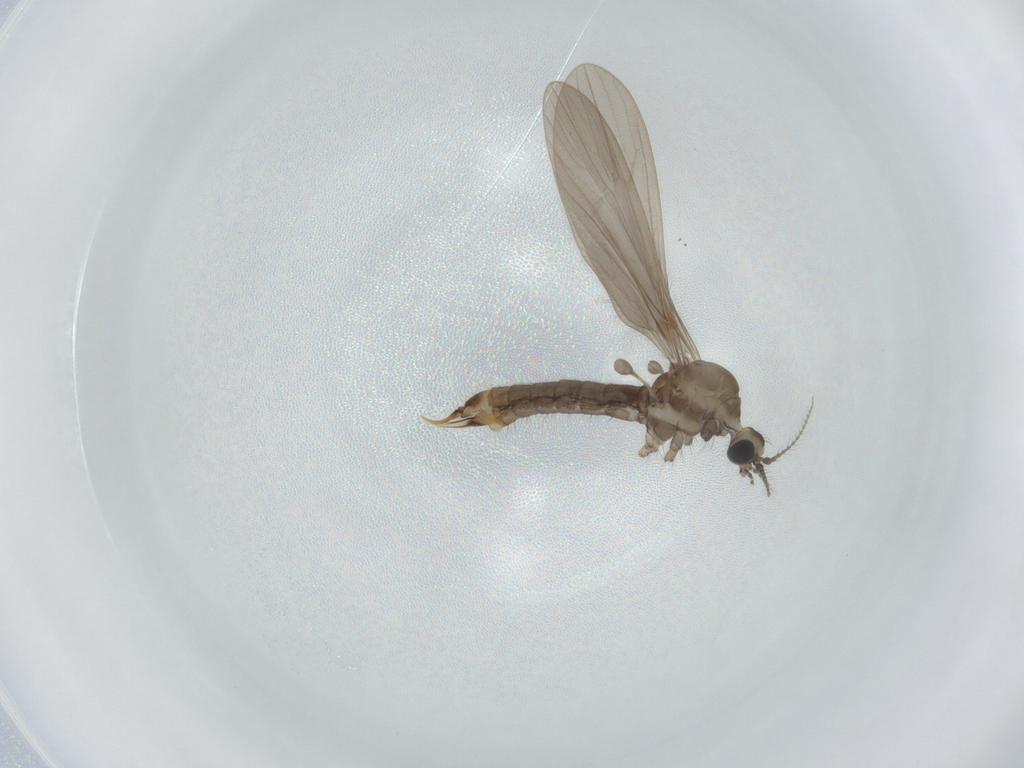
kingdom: Animalia
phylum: Arthropoda
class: Insecta
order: Diptera
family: Limoniidae
